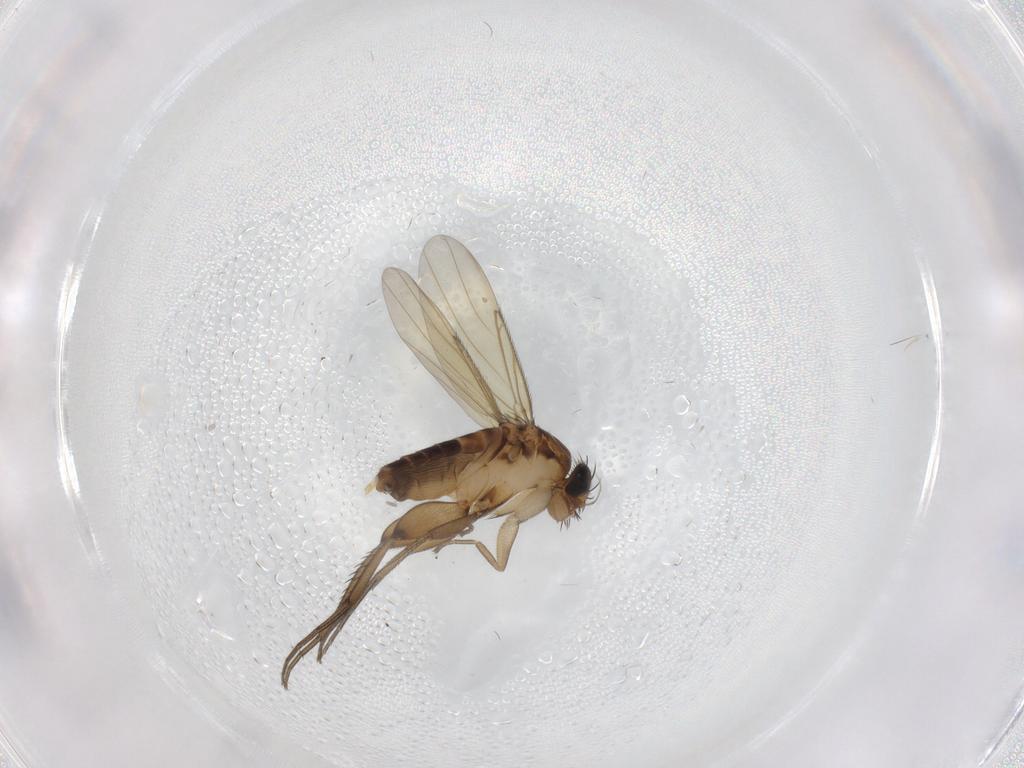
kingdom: Animalia
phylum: Arthropoda
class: Insecta
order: Diptera
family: Phoridae
